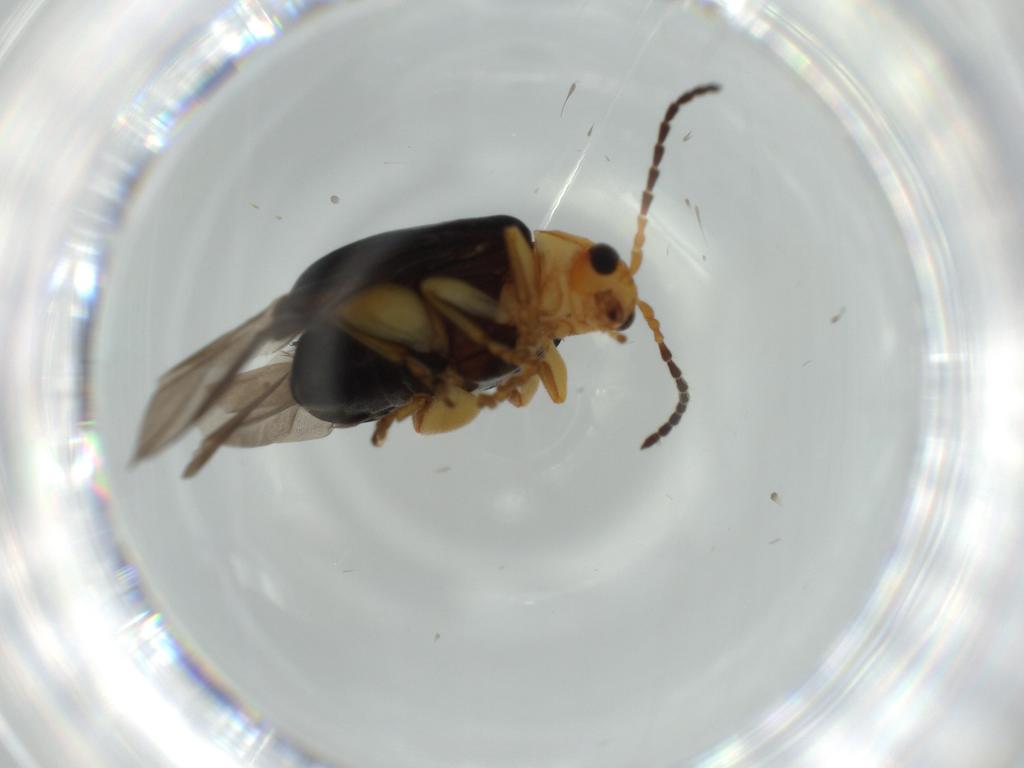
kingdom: Animalia
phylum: Arthropoda
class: Insecta
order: Coleoptera
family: Chrysomelidae
